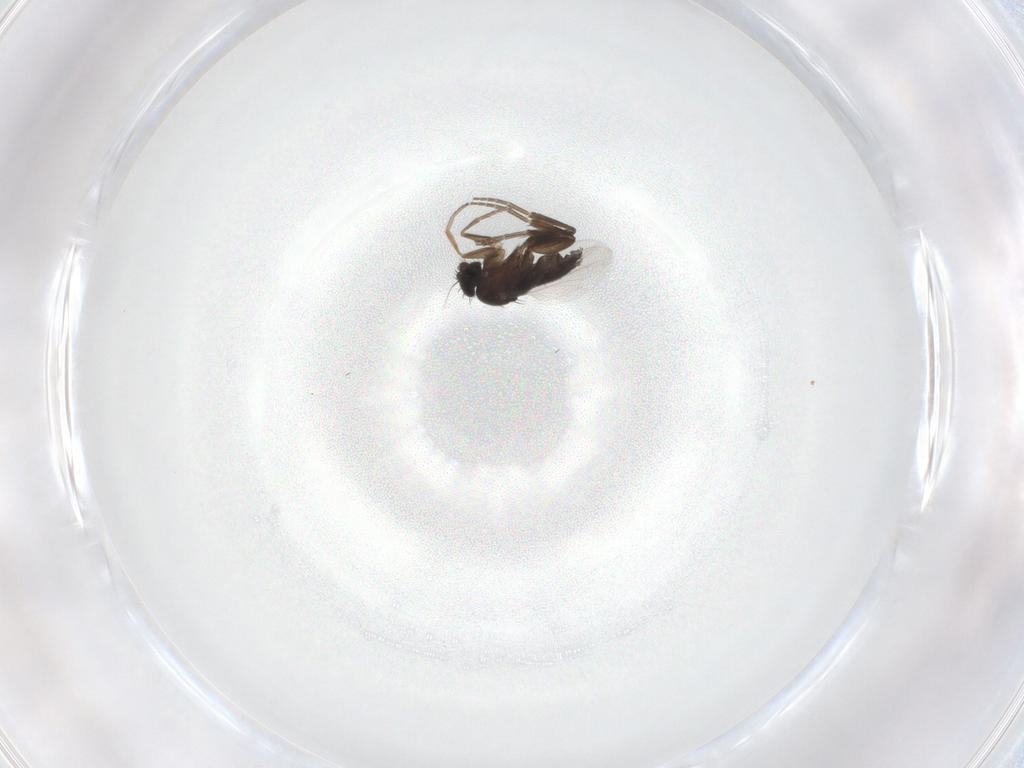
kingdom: Animalia
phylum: Arthropoda
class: Insecta
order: Diptera
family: Phoridae
